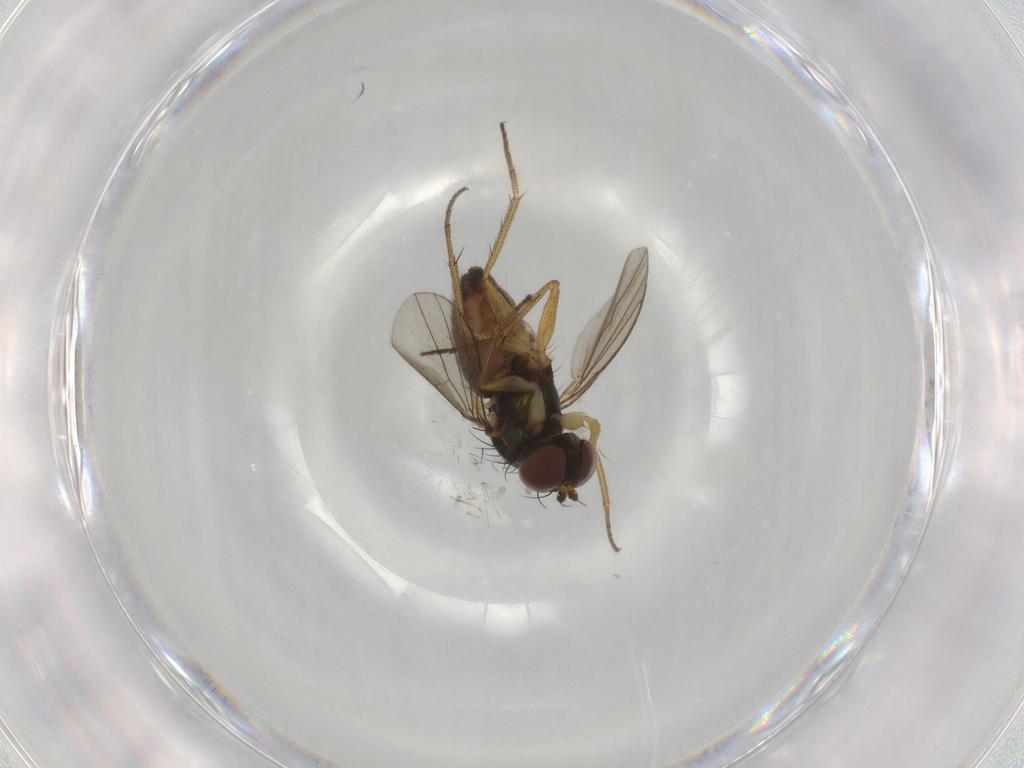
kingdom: Animalia
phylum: Arthropoda
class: Insecta
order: Diptera
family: Dolichopodidae
